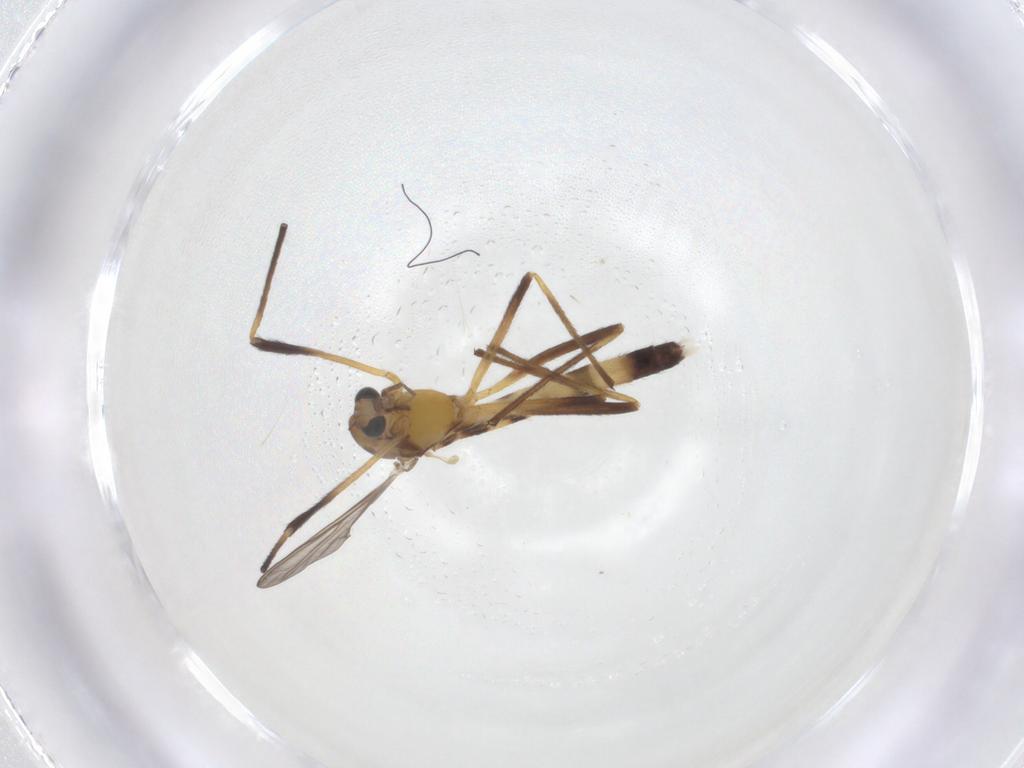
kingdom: Animalia
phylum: Arthropoda
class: Insecta
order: Diptera
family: Chironomidae
